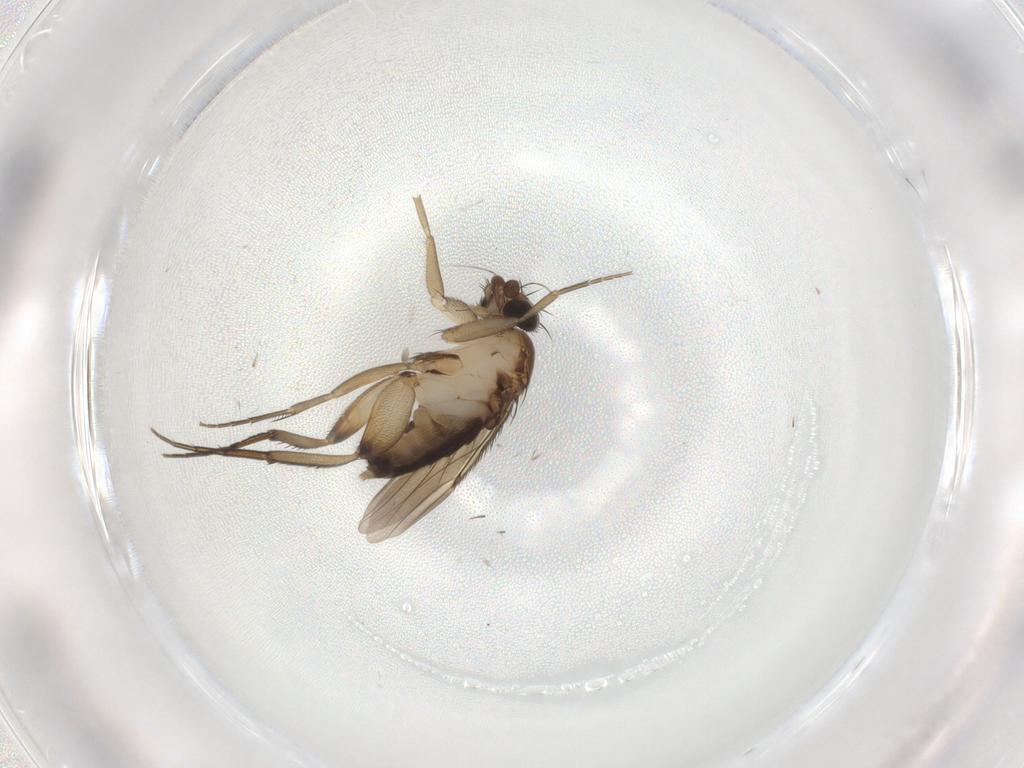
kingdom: Animalia
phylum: Arthropoda
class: Insecta
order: Diptera
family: Phoridae
